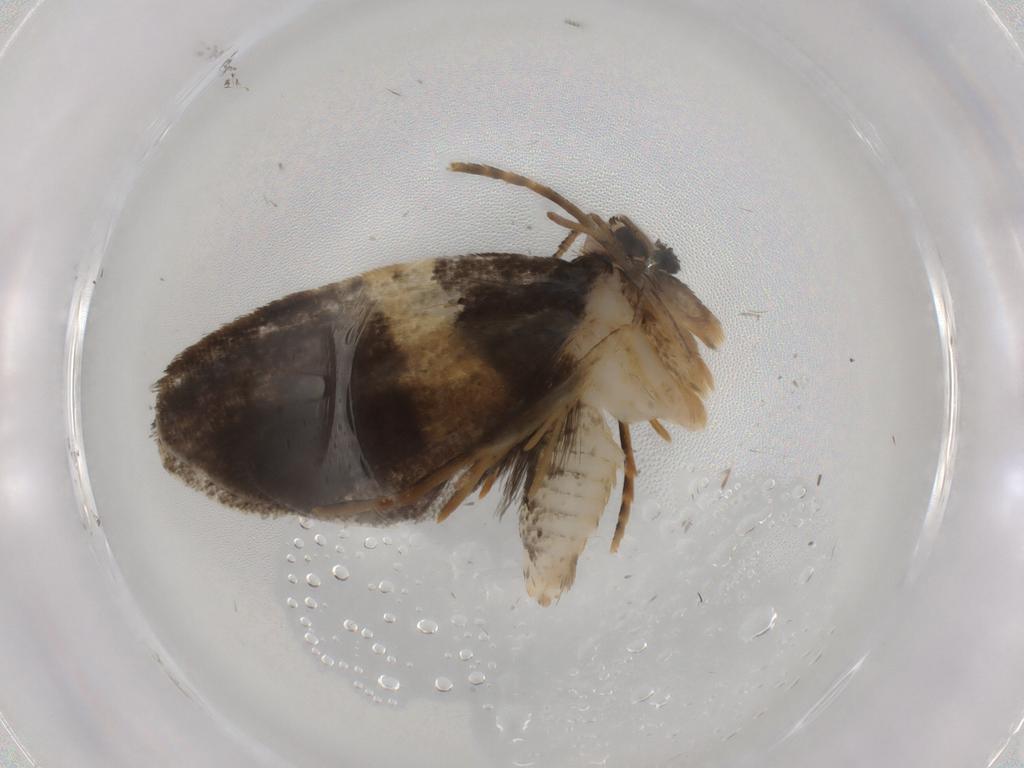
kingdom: Animalia
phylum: Arthropoda
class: Insecta
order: Lepidoptera
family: Psychidae
